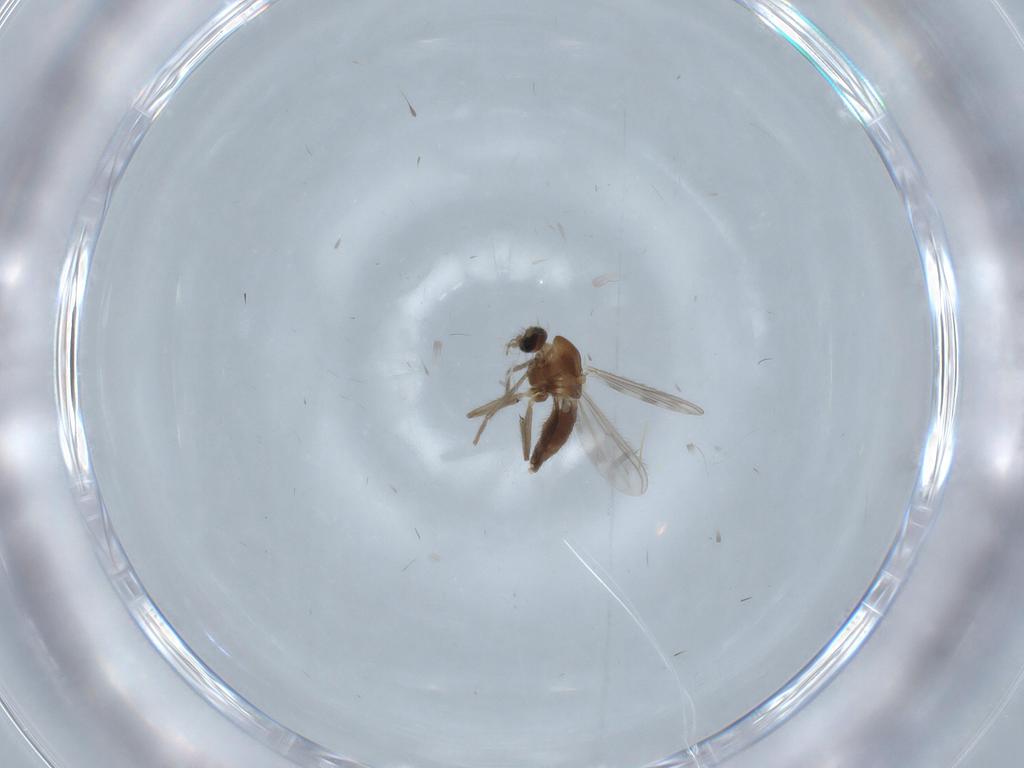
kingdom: Animalia
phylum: Arthropoda
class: Insecta
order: Diptera
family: Chironomidae
